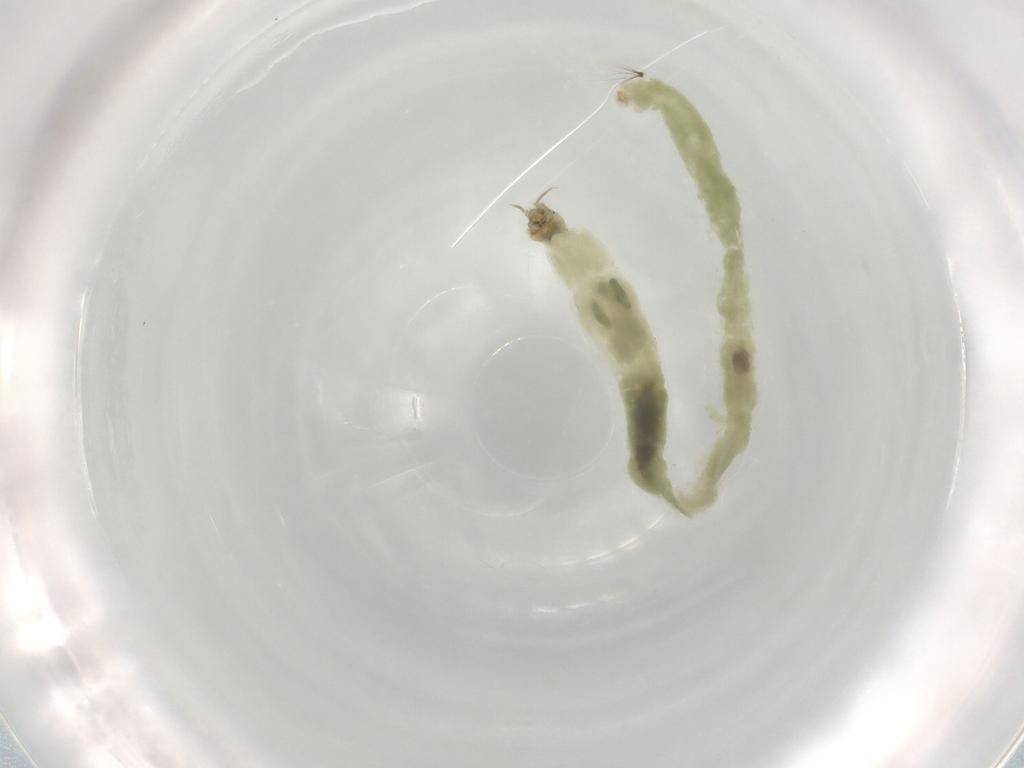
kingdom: Animalia
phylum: Arthropoda
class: Insecta
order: Diptera
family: Chironomidae
